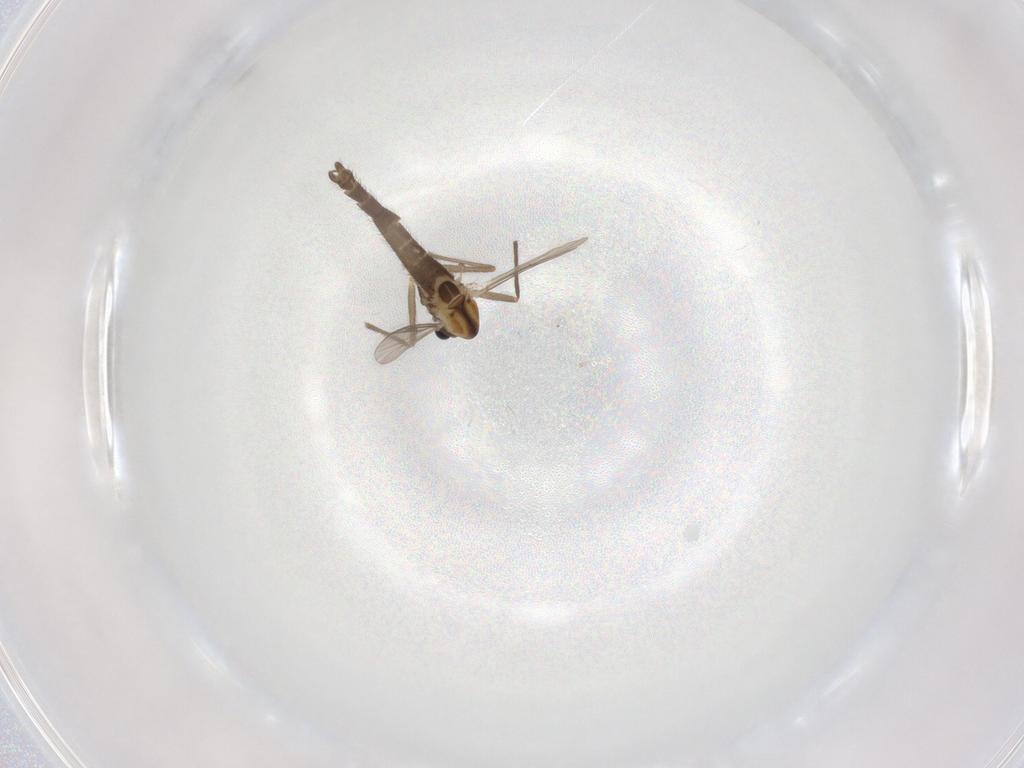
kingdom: Animalia
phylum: Arthropoda
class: Insecta
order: Diptera
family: Chironomidae
